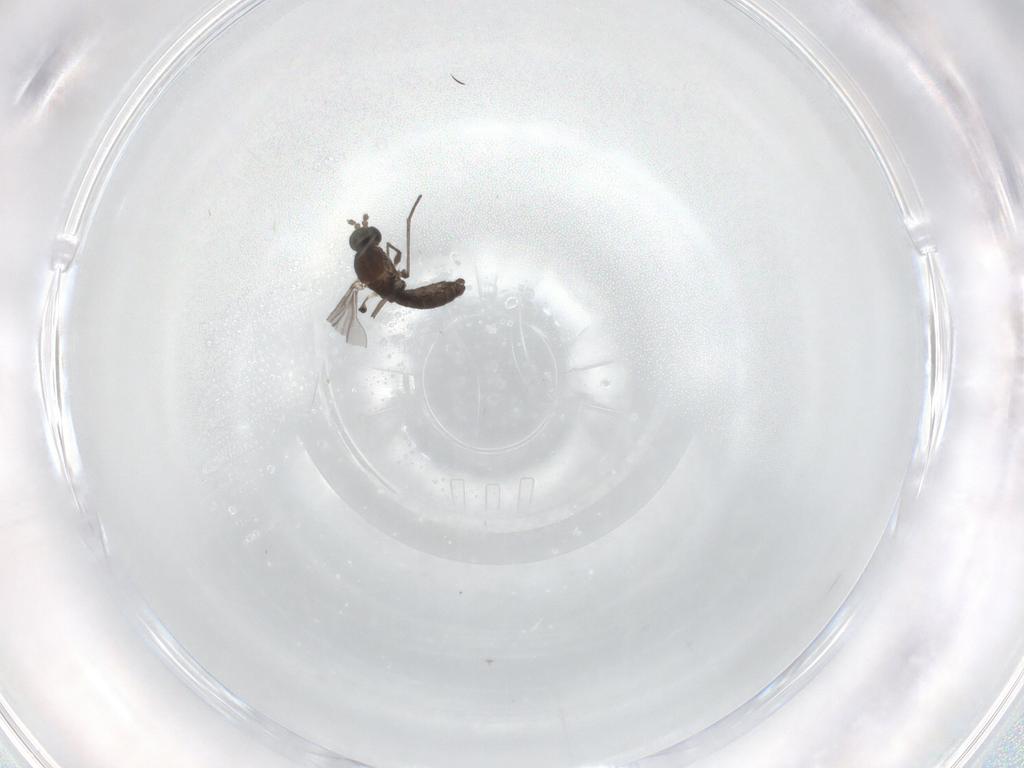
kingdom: Animalia
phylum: Arthropoda
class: Insecta
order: Diptera
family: Sciaridae
